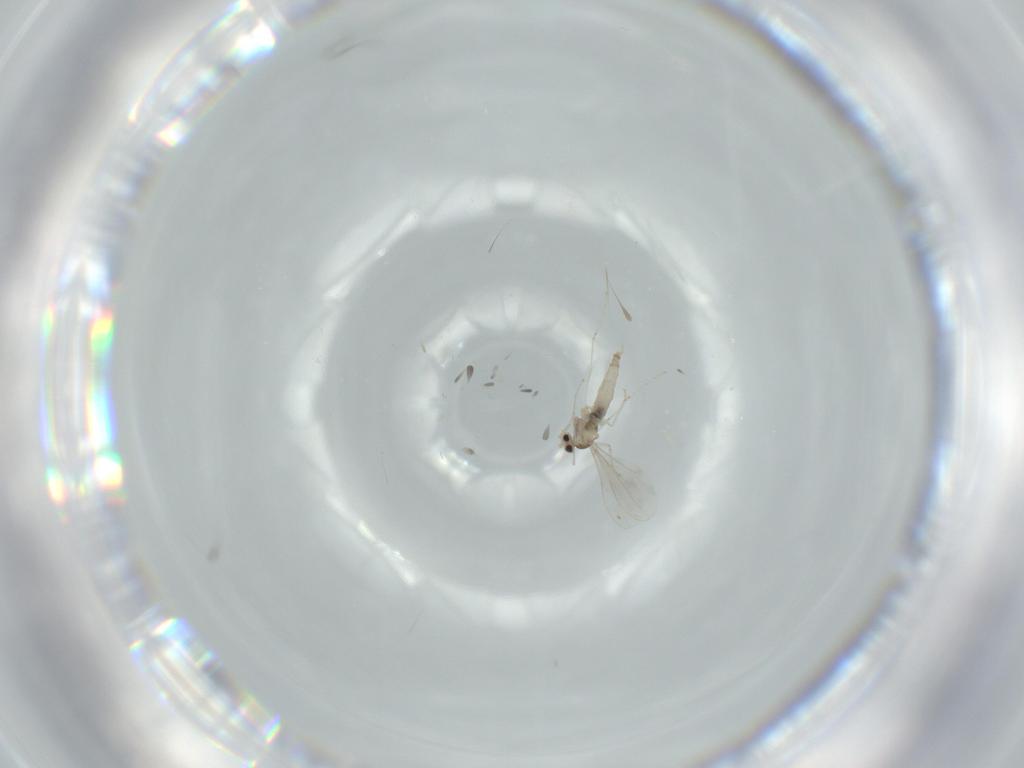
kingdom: Animalia
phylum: Arthropoda
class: Insecta
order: Diptera
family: Cecidomyiidae
